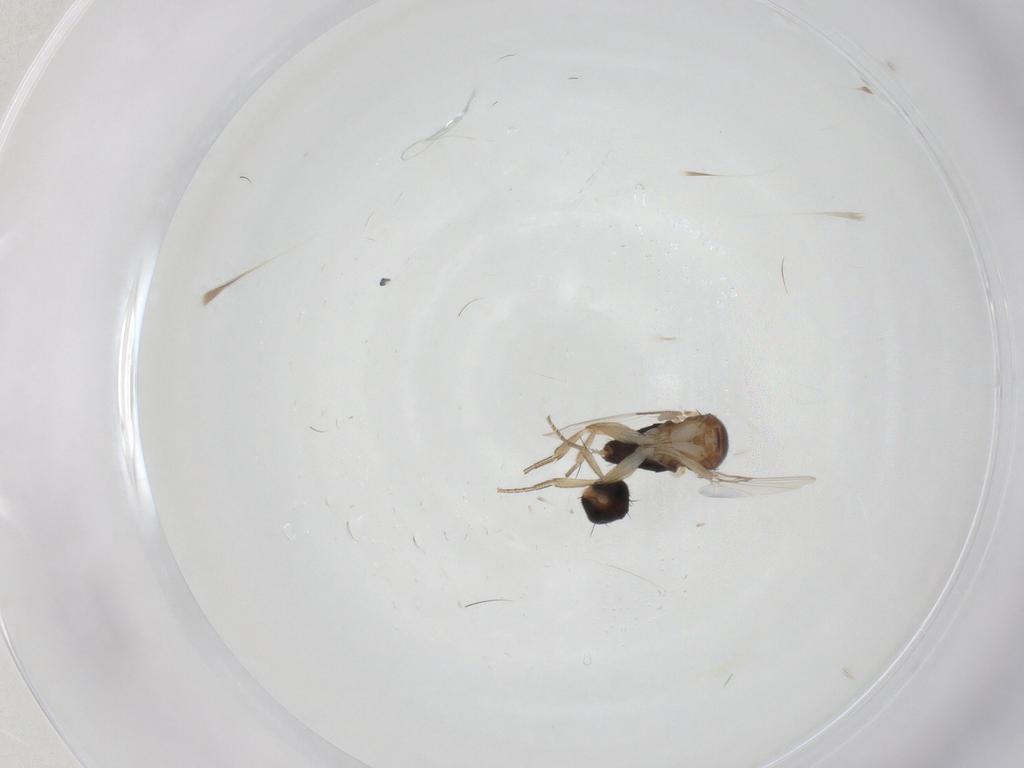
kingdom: Animalia
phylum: Arthropoda
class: Insecta
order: Diptera
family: Phoridae
